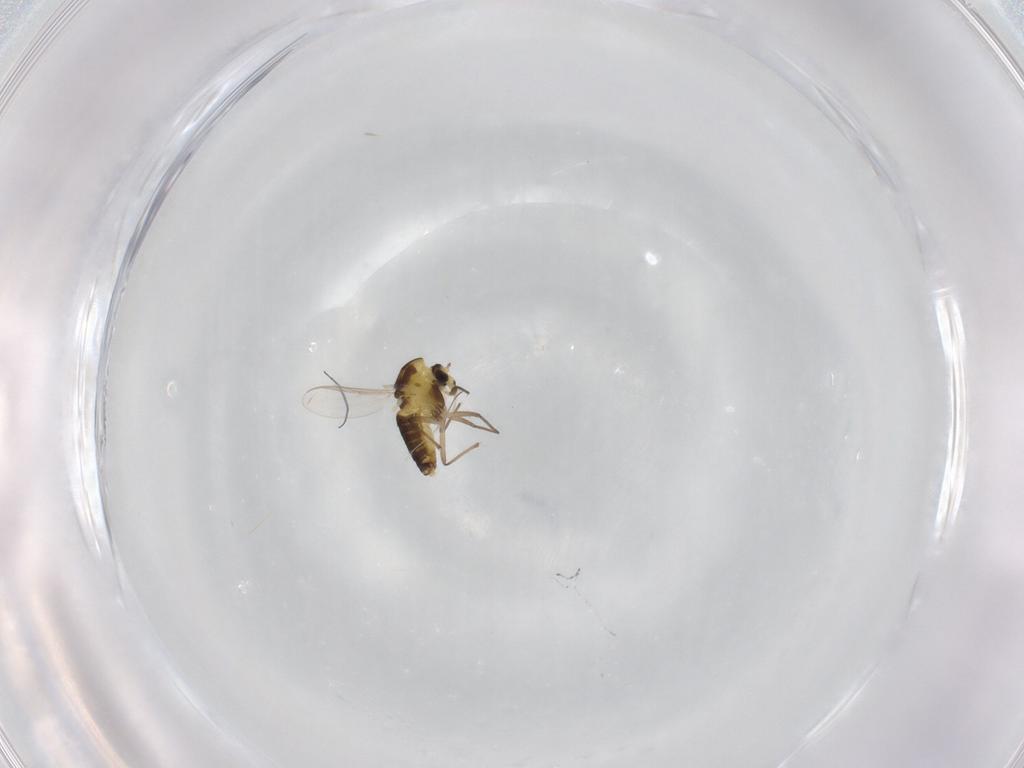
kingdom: Animalia
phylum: Arthropoda
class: Insecta
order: Diptera
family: Chironomidae
